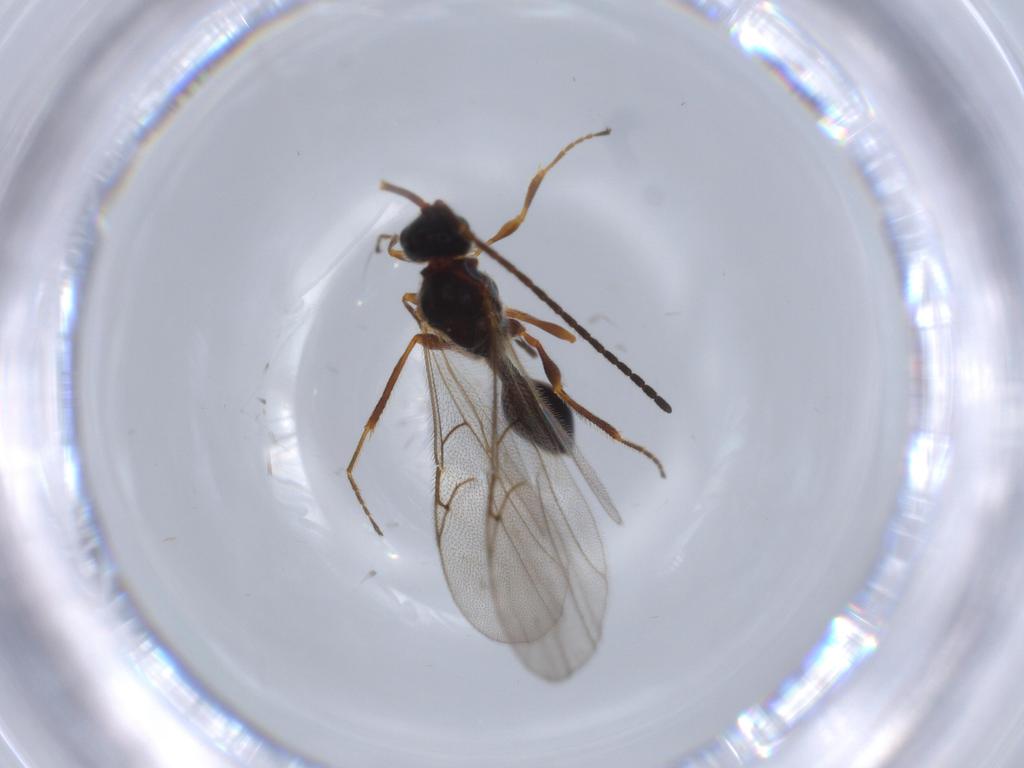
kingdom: Animalia
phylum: Arthropoda
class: Insecta
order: Hymenoptera
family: Diapriidae
